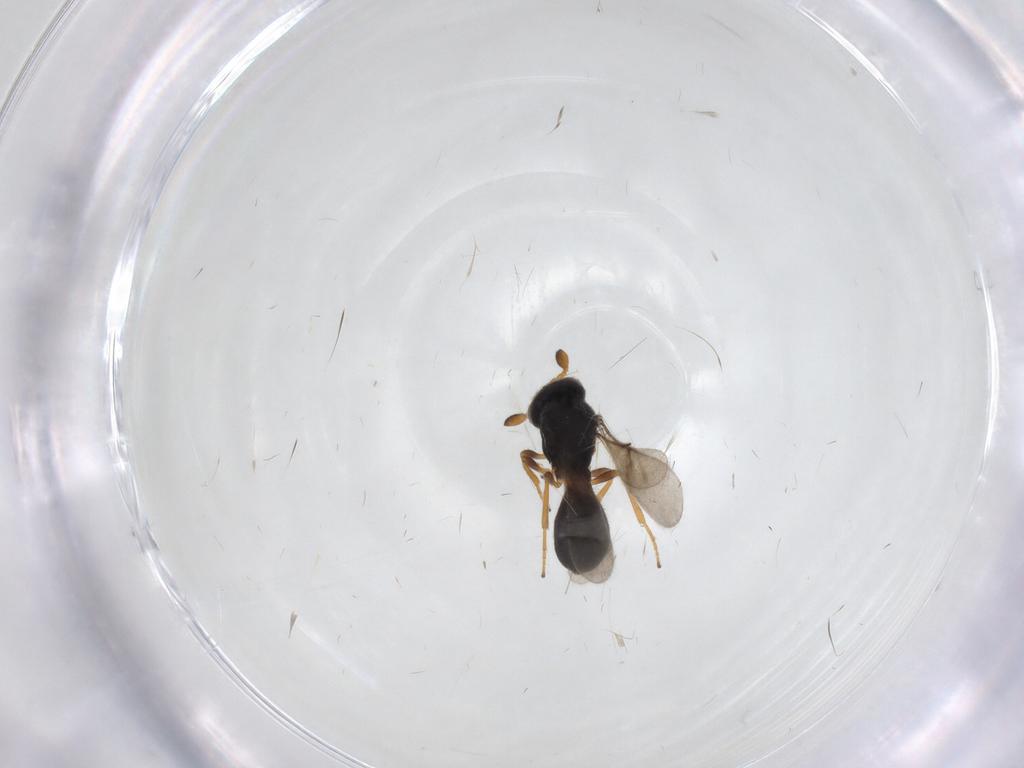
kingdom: Animalia
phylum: Arthropoda
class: Insecta
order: Hymenoptera
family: Scelionidae
